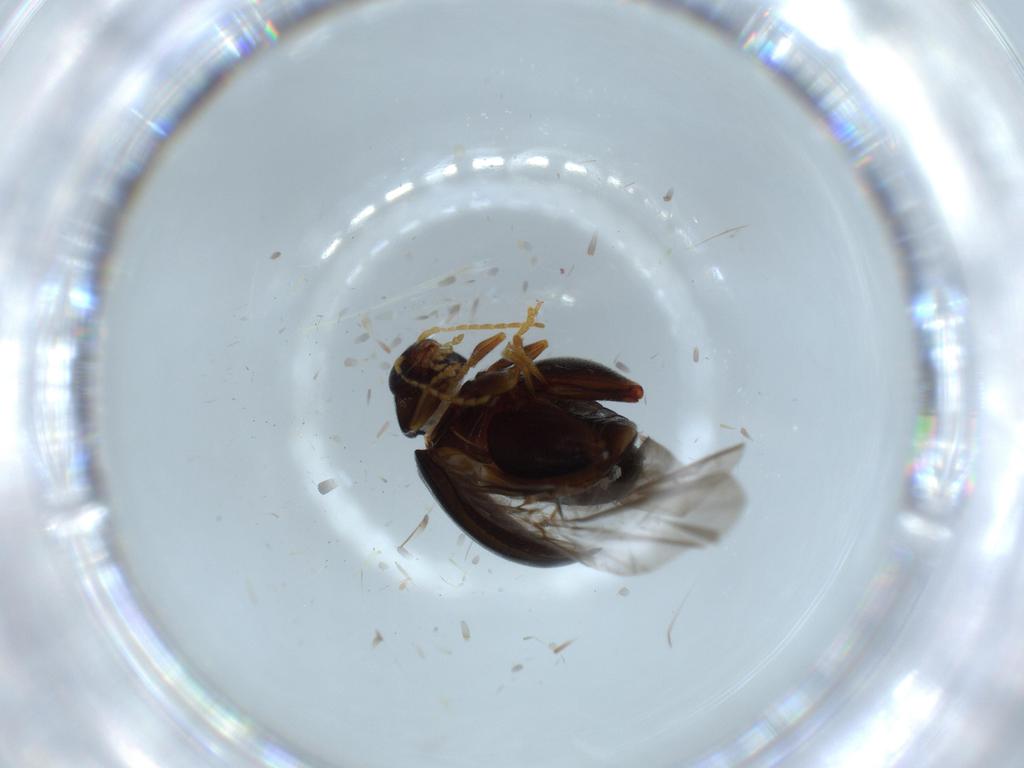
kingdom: Animalia
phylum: Arthropoda
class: Insecta
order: Coleoptera
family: Chrysomelidae
